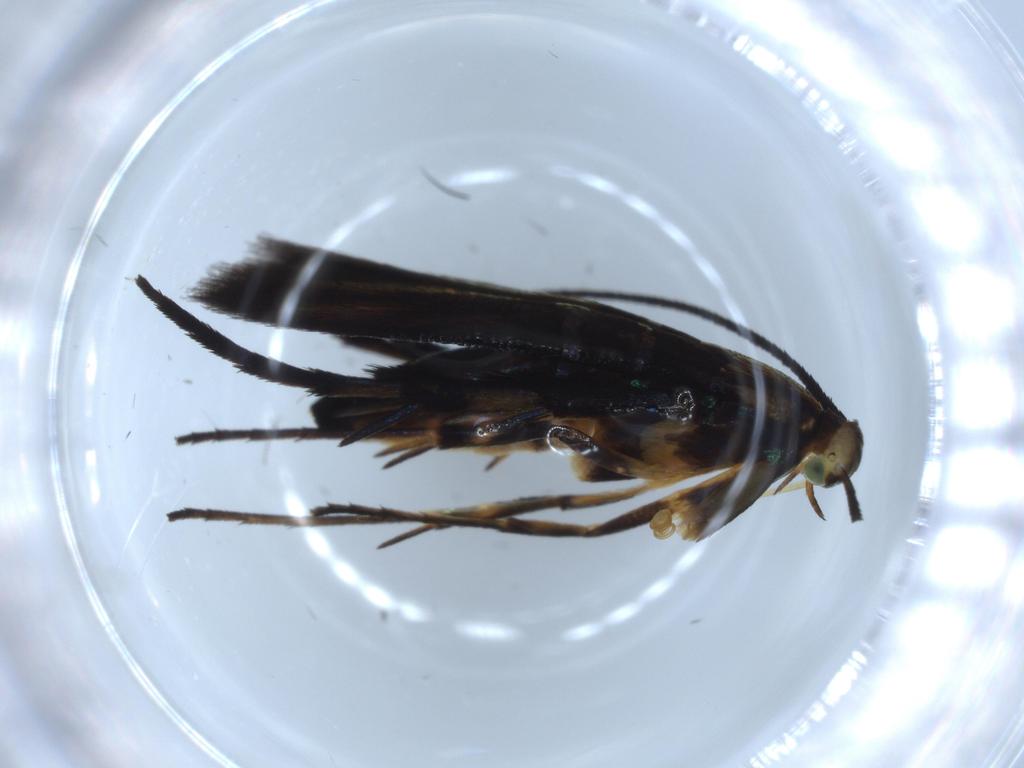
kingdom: Animalia
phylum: Arthropoda
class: Insecta
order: Lepidoptera
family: Heliodinidae
